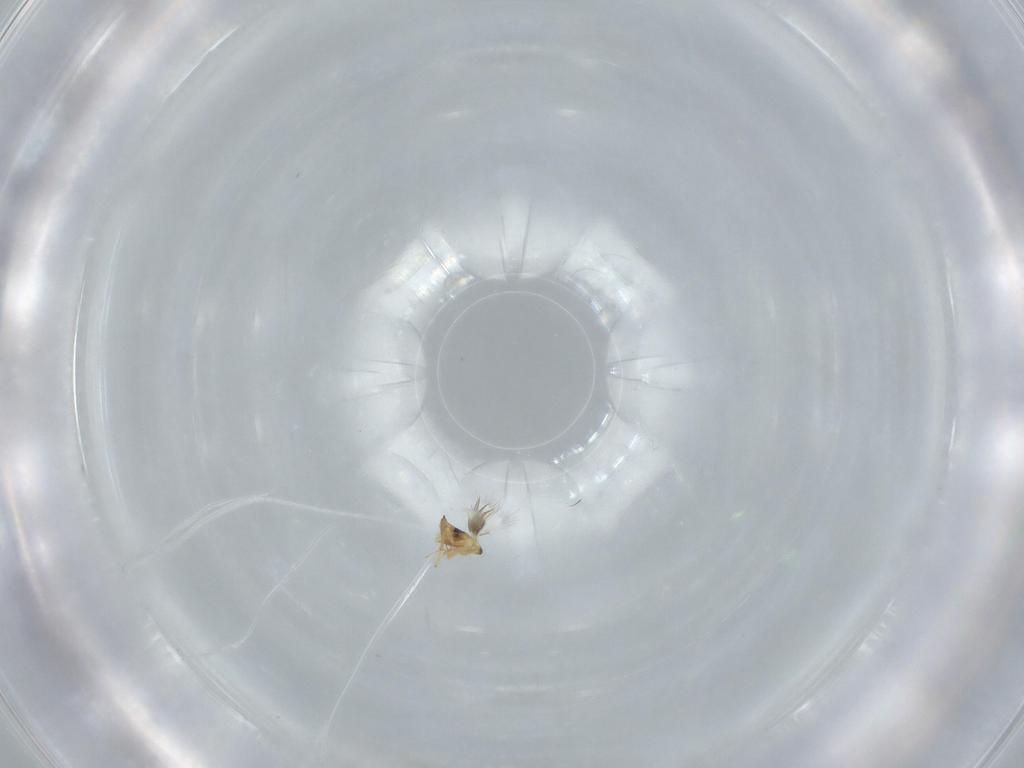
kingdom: Animalia
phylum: Arthropoda
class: Insecta
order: Hymenoptera
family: Signiphoridae
